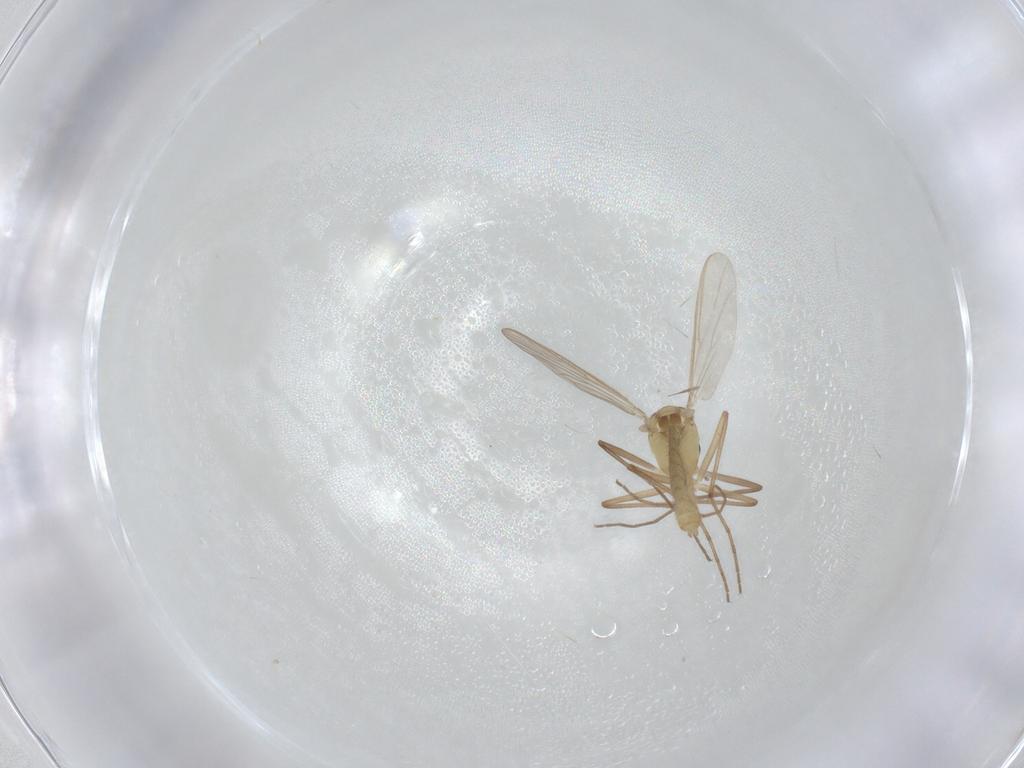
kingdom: Animalia
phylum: Arthropoda
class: Insecta
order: Diptera
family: Chironomidae
